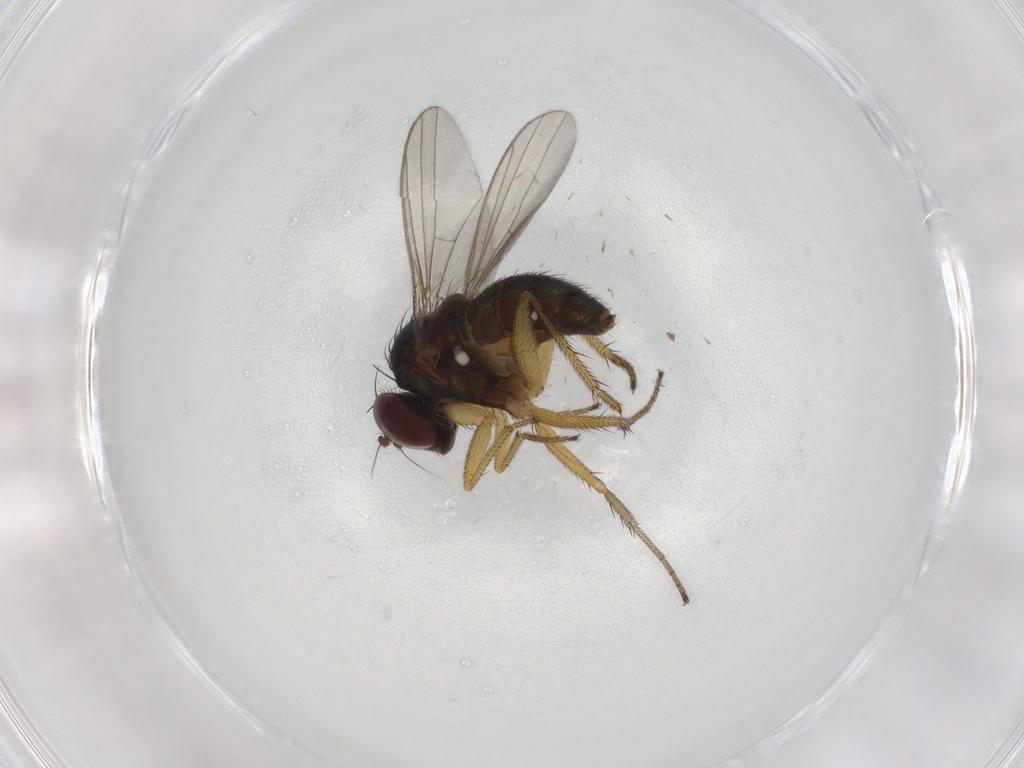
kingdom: Animalia
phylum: Arthropoda
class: Insecta
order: Diptera
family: Dolichopodidae
